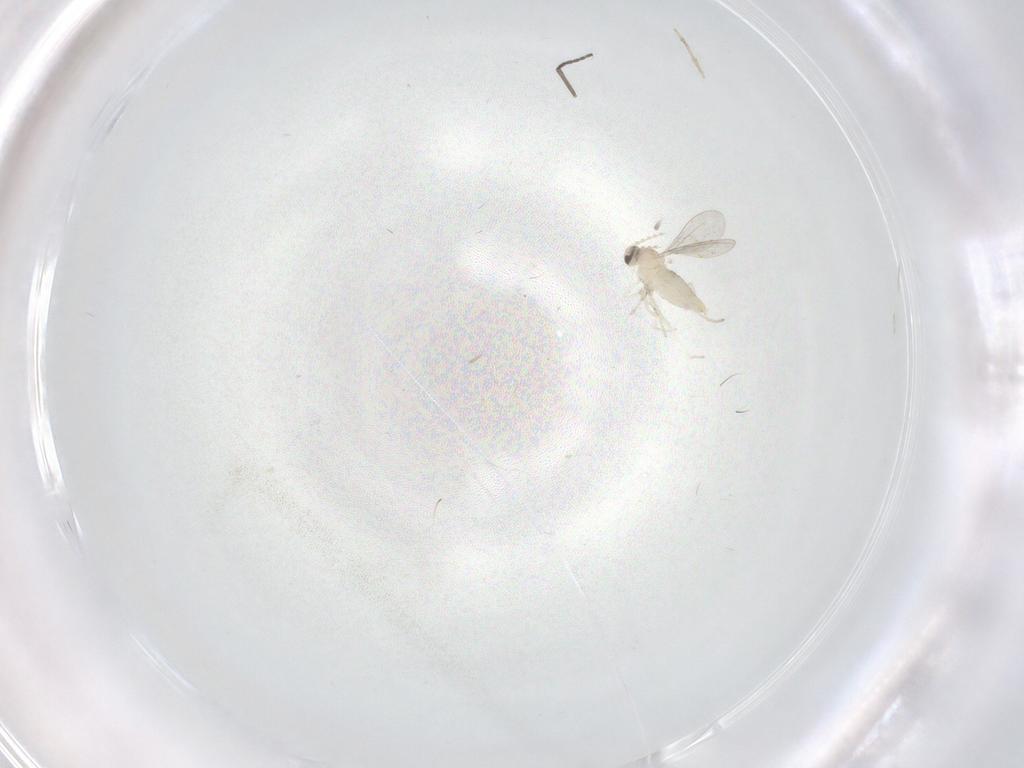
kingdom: Animalia
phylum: Arthropoda
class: Insecta
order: Diptera
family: Cecidomyiidae
